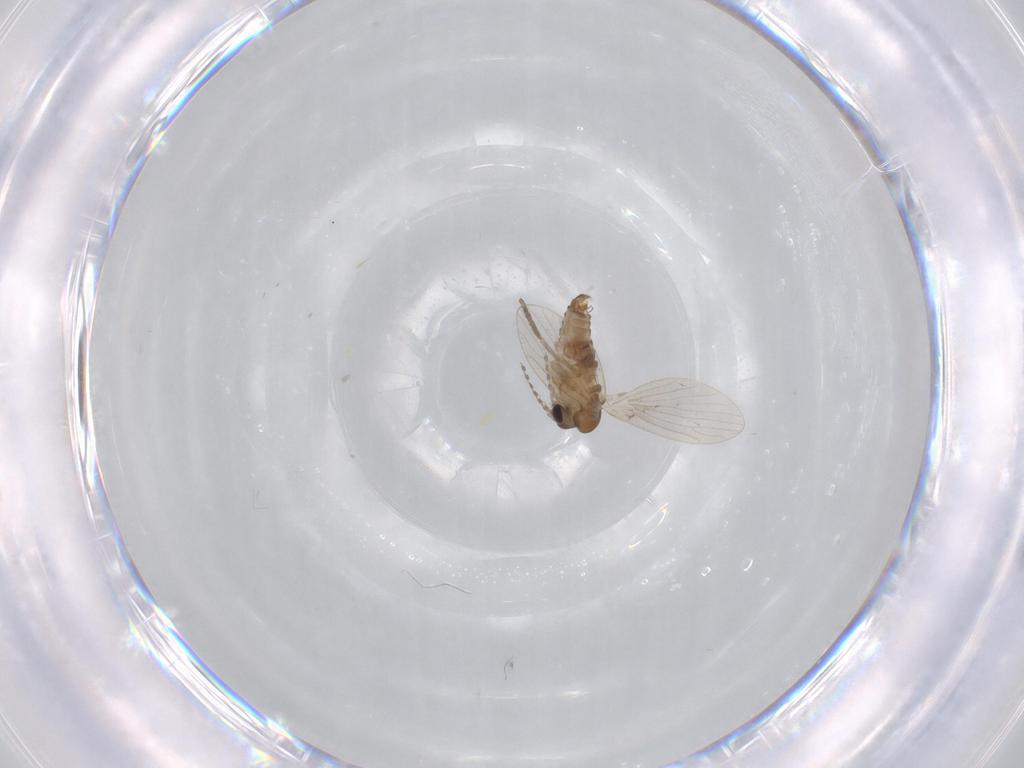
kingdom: Animalia
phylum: Arthropoda
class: Insecta
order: Diptera
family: Psychodidae
